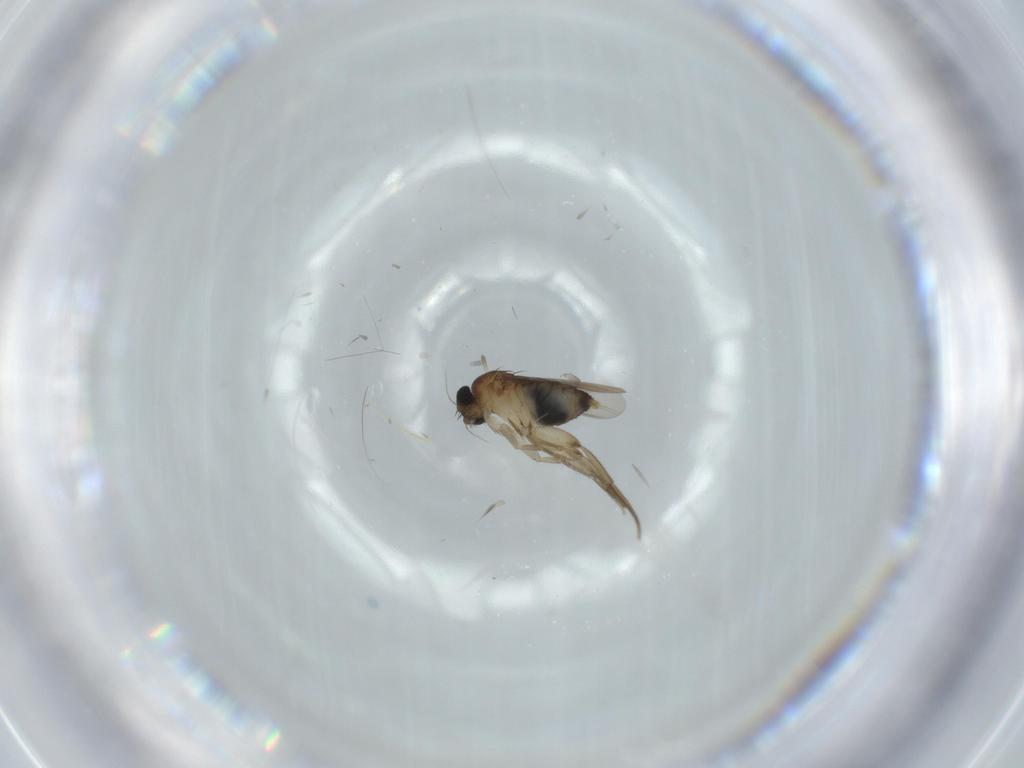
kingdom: Animalia
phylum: Arthropoda
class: Insecta
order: Diptera
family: Phoridae
